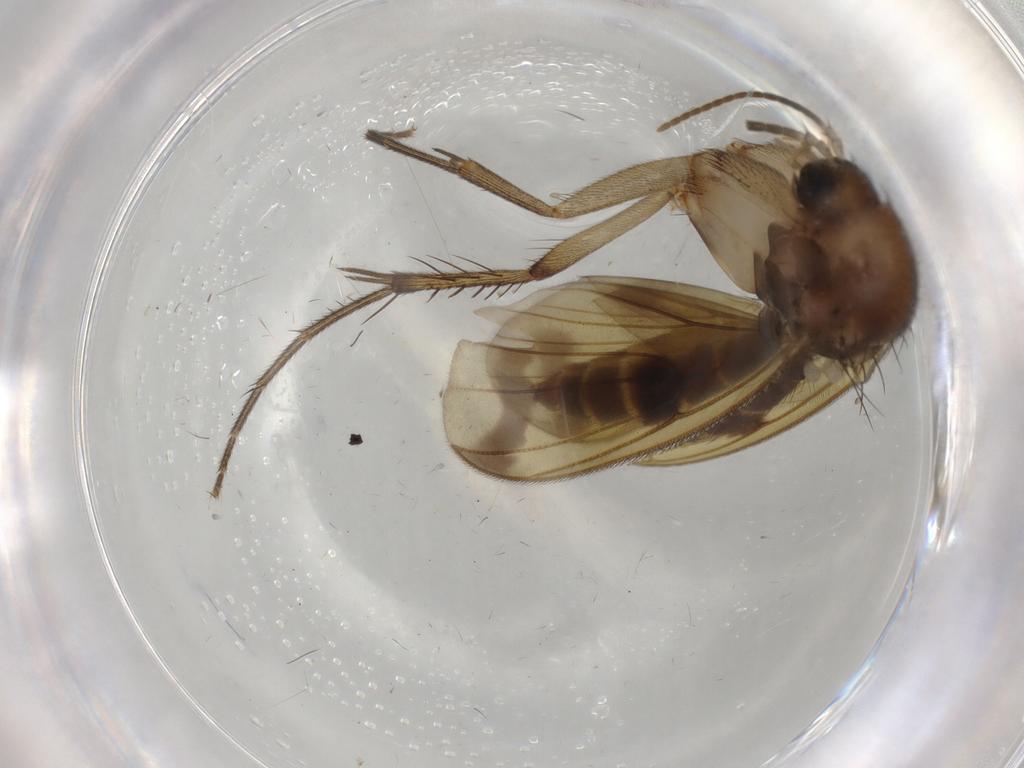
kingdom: Animalia
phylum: Arthropoda
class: Insecta
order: Diptera
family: Cecidomyiidae
